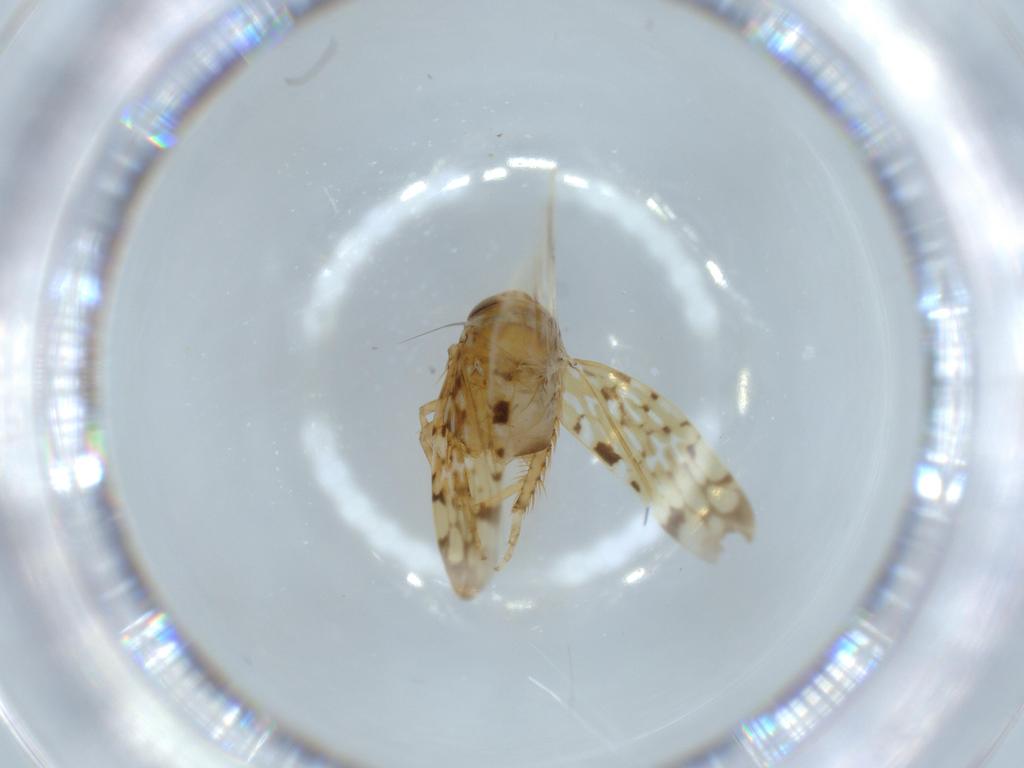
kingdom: Animalia
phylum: Arthropoda
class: Insecta
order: Hemiptera
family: Cicadellidae
